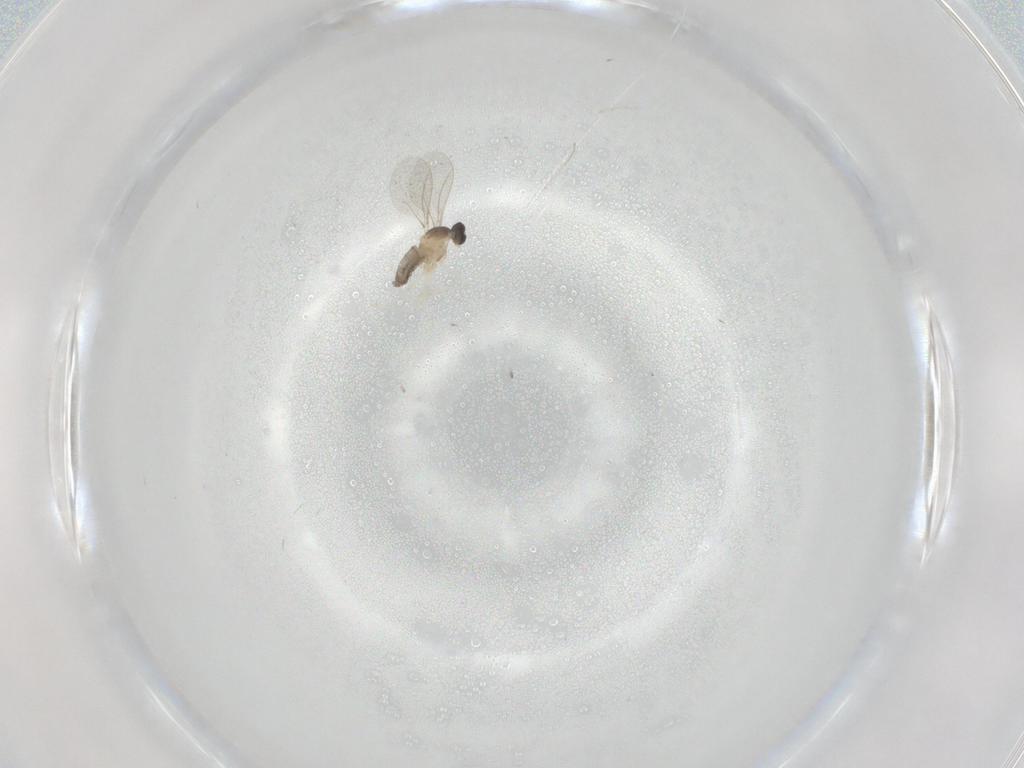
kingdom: Animalia
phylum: Arthropoda
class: Insecta
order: Diptera
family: Cecidomyiidae
